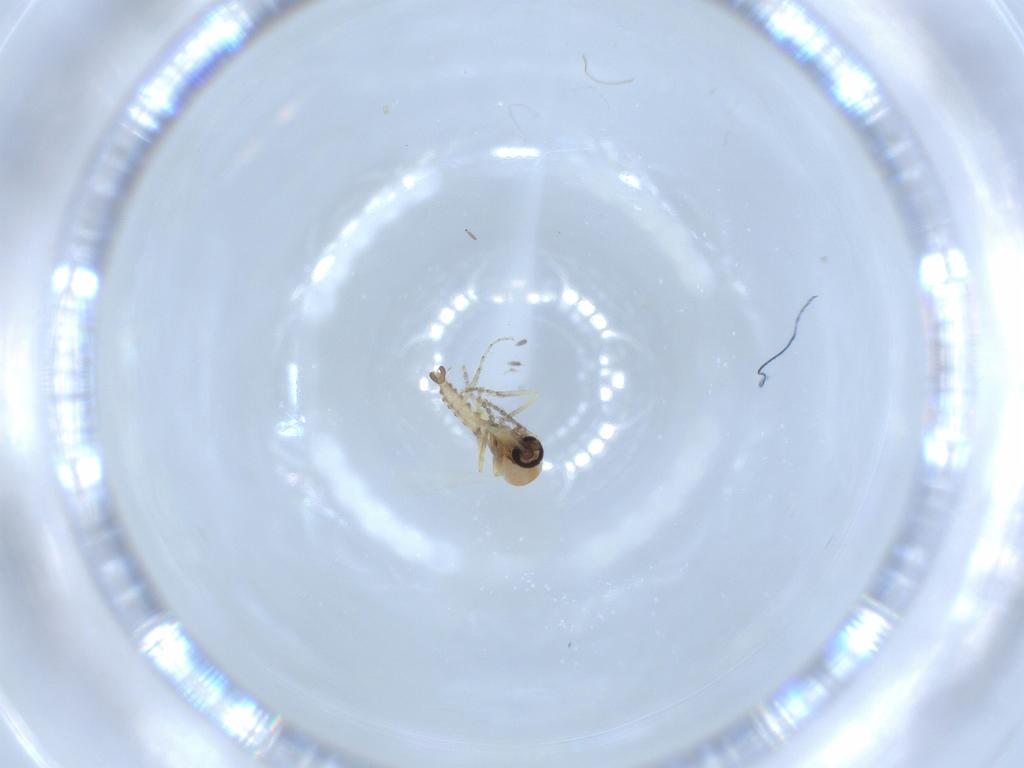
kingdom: Animalia
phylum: Arthropoda
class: Insecta
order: Diptera
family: Ceratopogonidae
